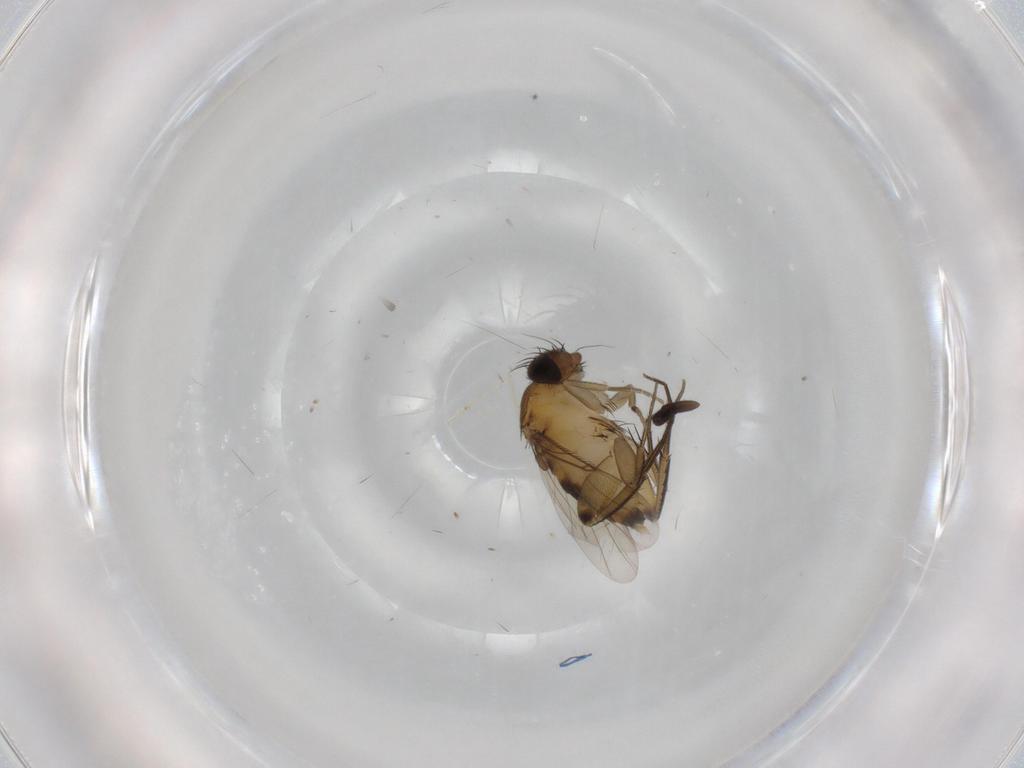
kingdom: Animalia
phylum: Arthropoda
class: Insecta
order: Diptera
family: Phoridae
